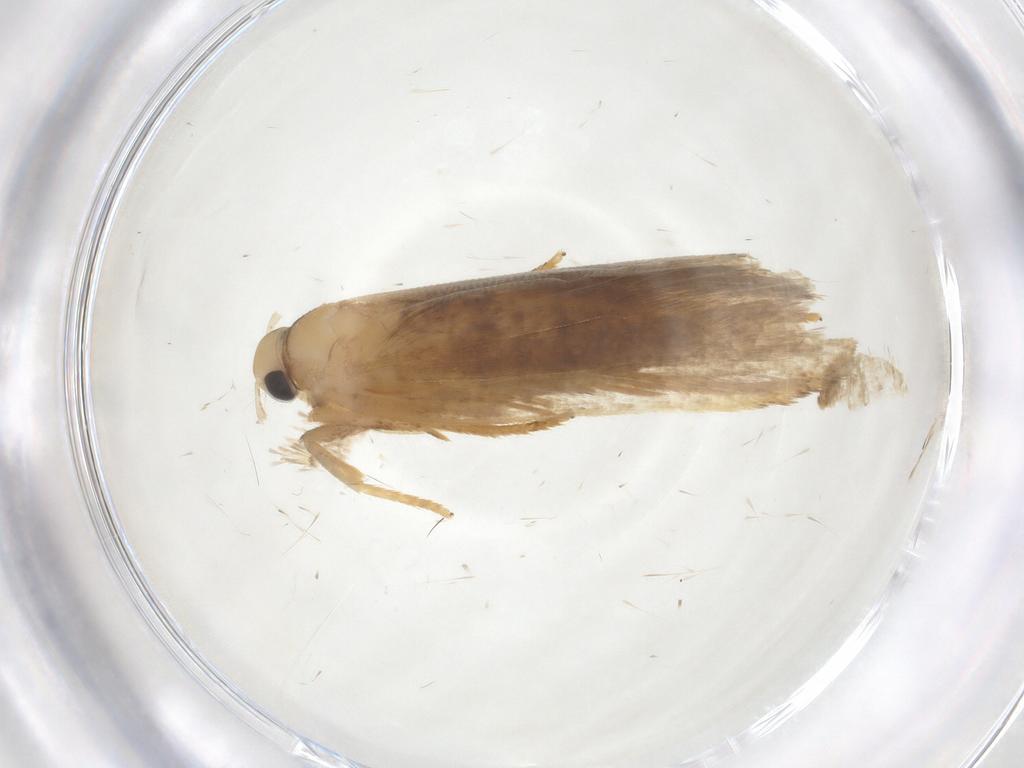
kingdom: Animalia
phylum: Arthropoda
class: Insecta
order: Lepidoptera
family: Gelechiidae
